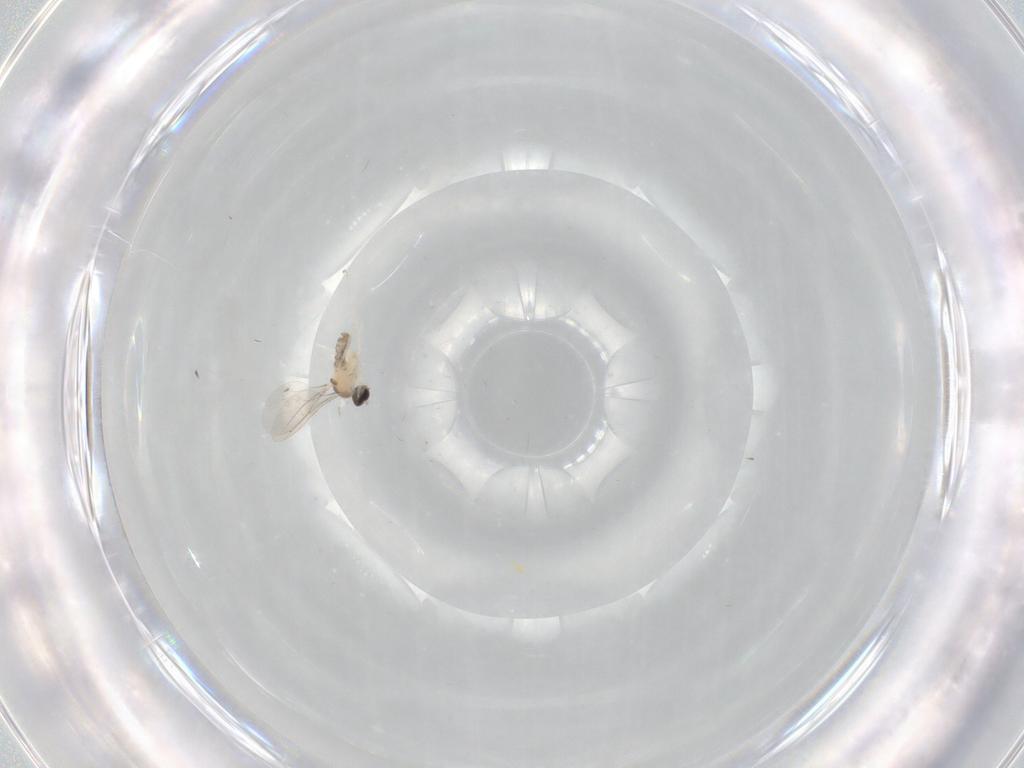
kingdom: Animalia
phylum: Arthropoda
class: Insecta
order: Diptera
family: Cecidomyiidae
